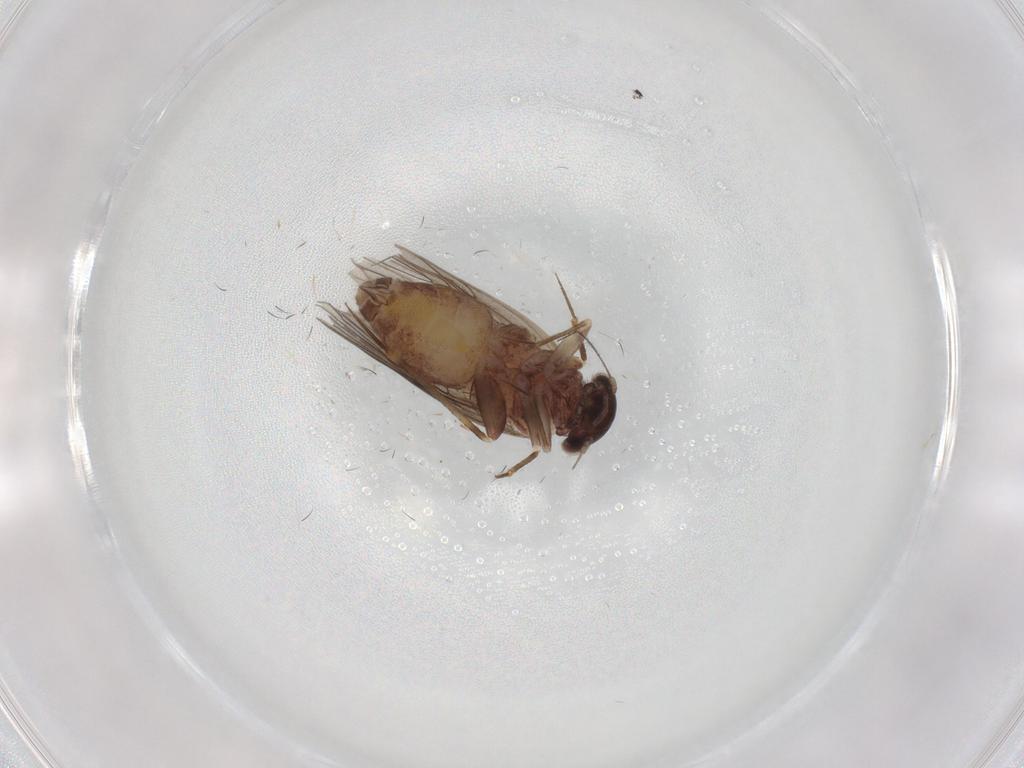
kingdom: Animalia
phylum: Arthropoda
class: Insecta
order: Psocodea
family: Lepidopsocidae
